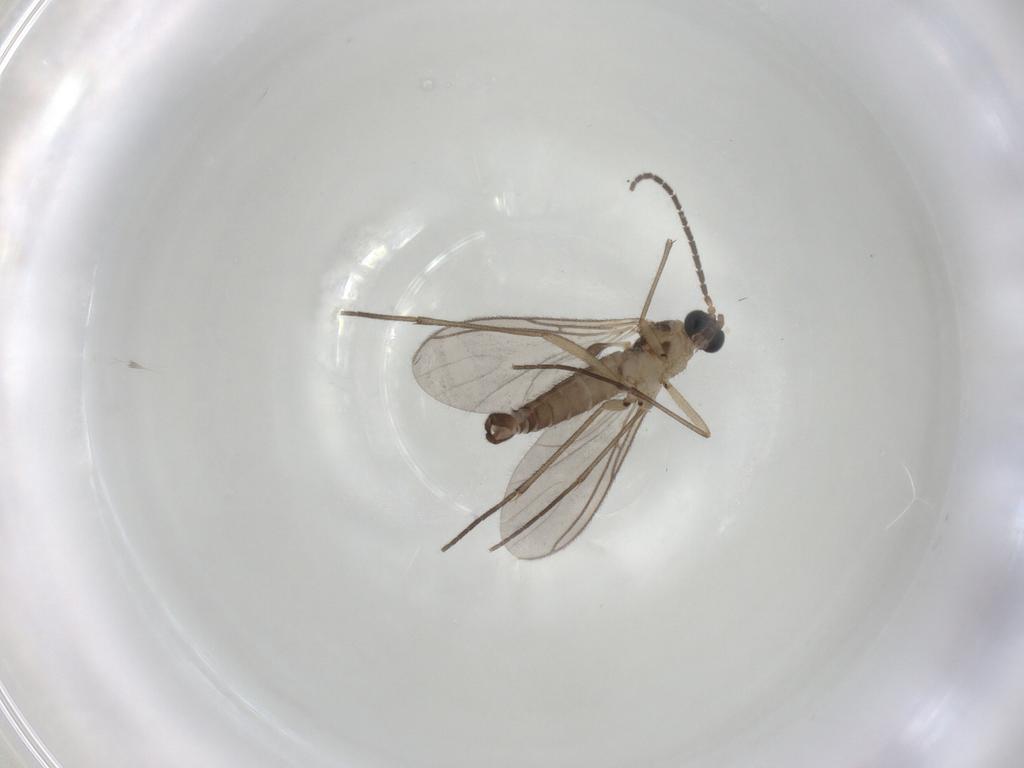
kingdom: Animalia
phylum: Arthropoda
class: Insecta
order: Diptera
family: Sciaridae
